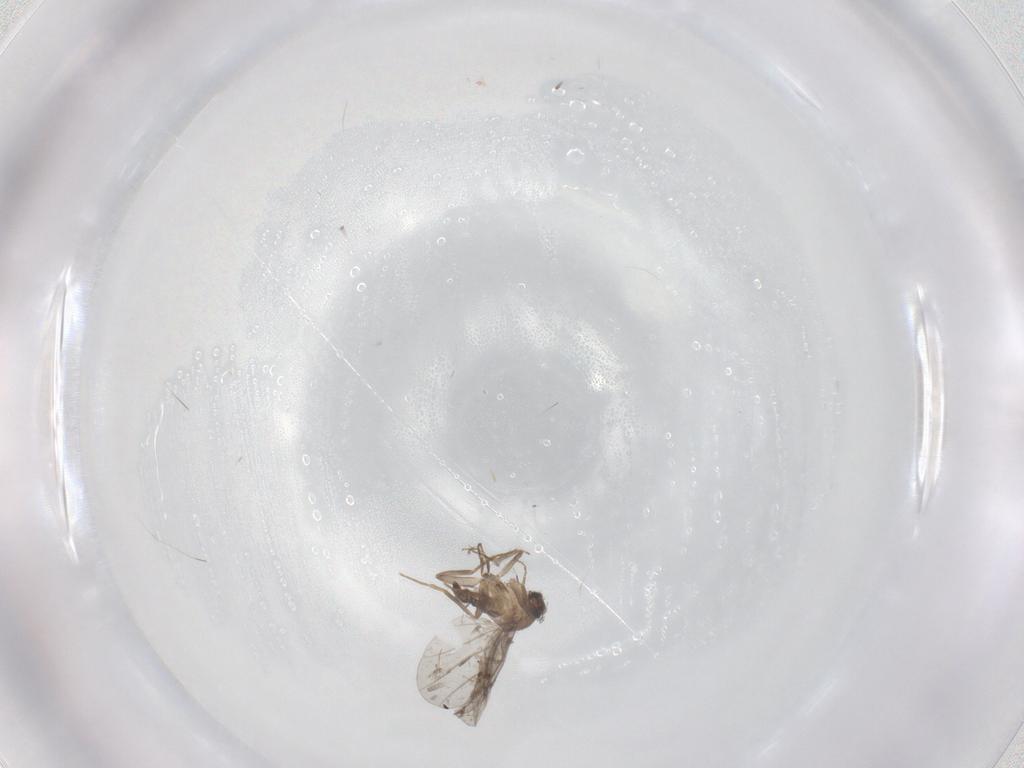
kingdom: Animalia
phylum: Arthropoda
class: Insecta
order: Diptera
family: Cecidomyiidae
